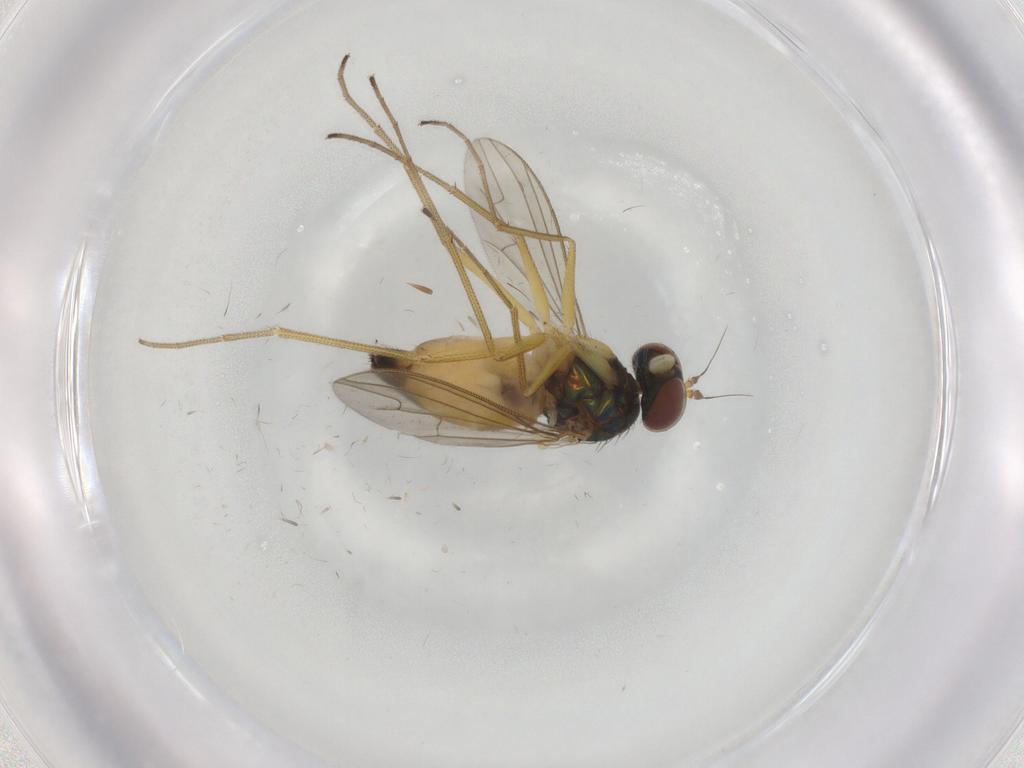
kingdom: Animalia
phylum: Arthropoda
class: Insecta
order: Diptera
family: Dolichopodidae
